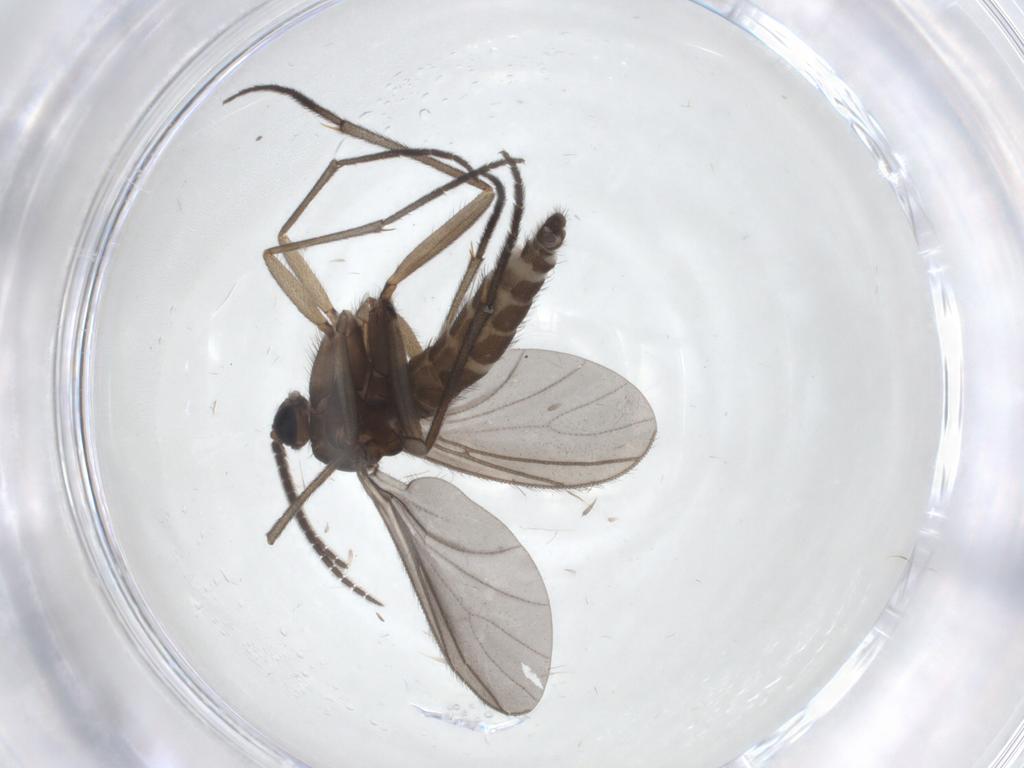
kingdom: Animalia
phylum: Arthropoda
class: Insecta
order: Diptera
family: Sciaridae
